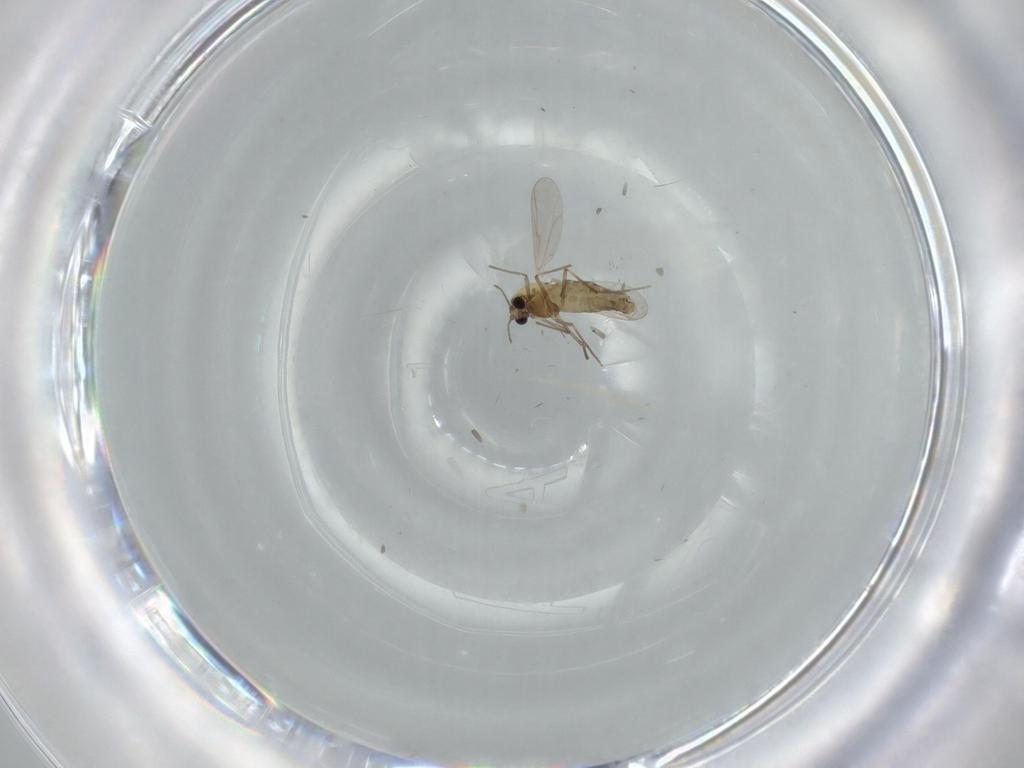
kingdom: Animalia
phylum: Arthropoda
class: Insecta
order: Diptera
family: Chironomidae
